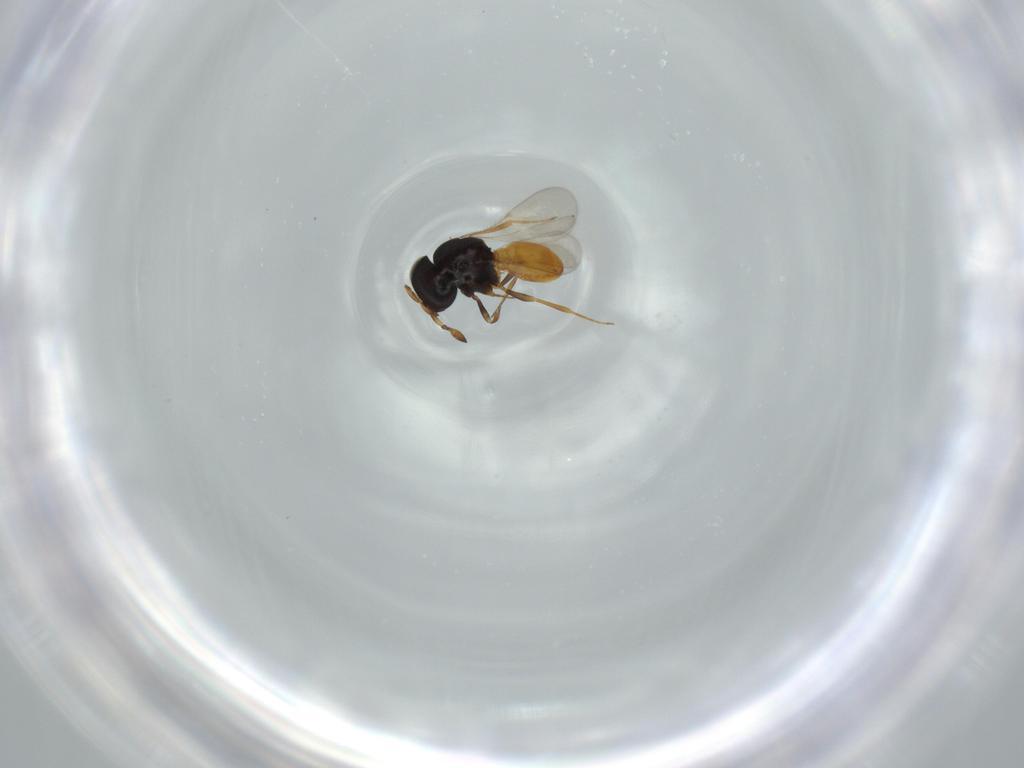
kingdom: Animalia
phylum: Arthropoda
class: Insecta
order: Hymenoptera
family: Scelionidae
